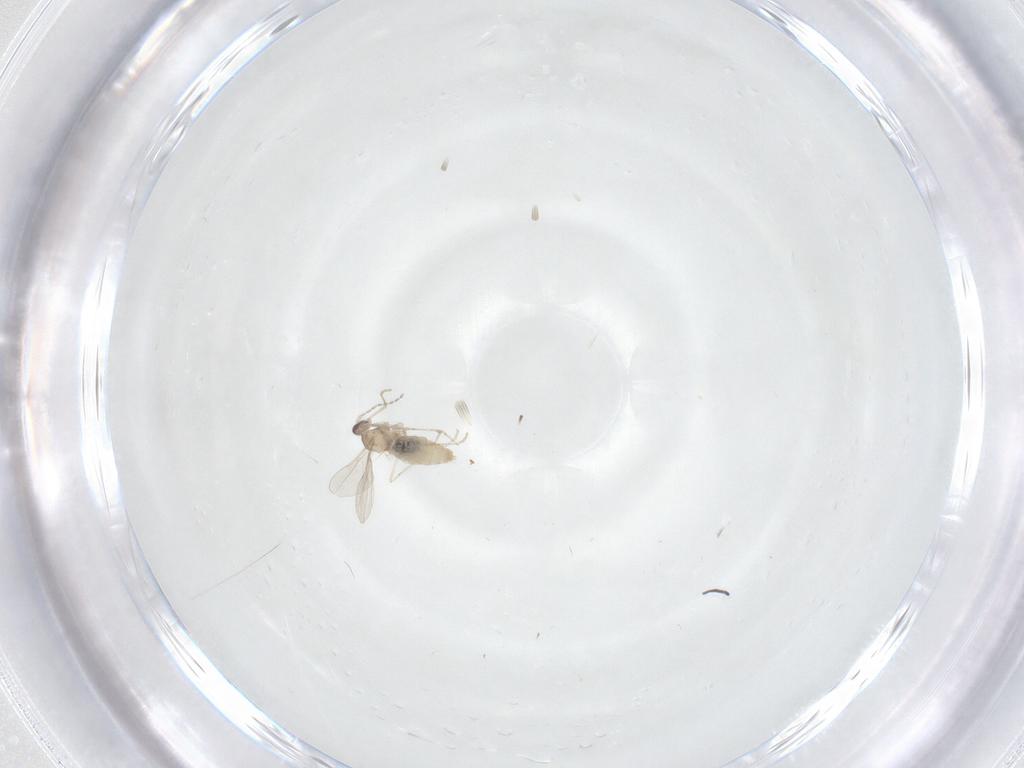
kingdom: Animalia
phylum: Arthropoda
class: Insecta
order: Diptera
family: Cecidomyiidae
